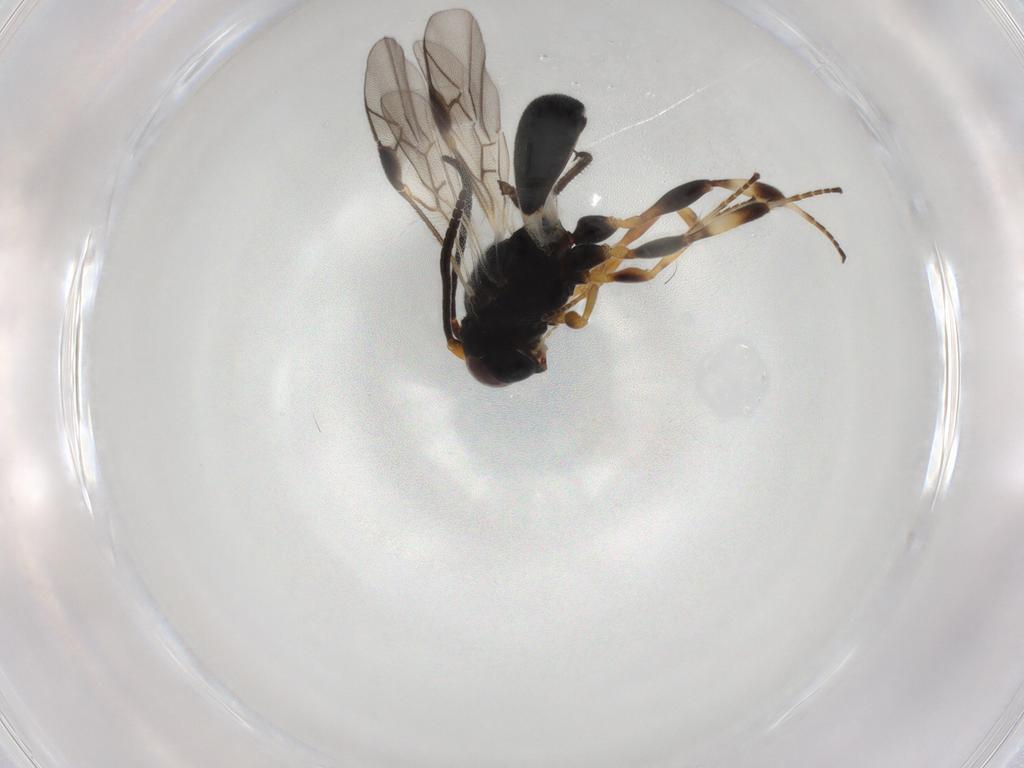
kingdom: Animalia
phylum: Arthropoda
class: Insecta
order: Hymenoptera
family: Braconidae
